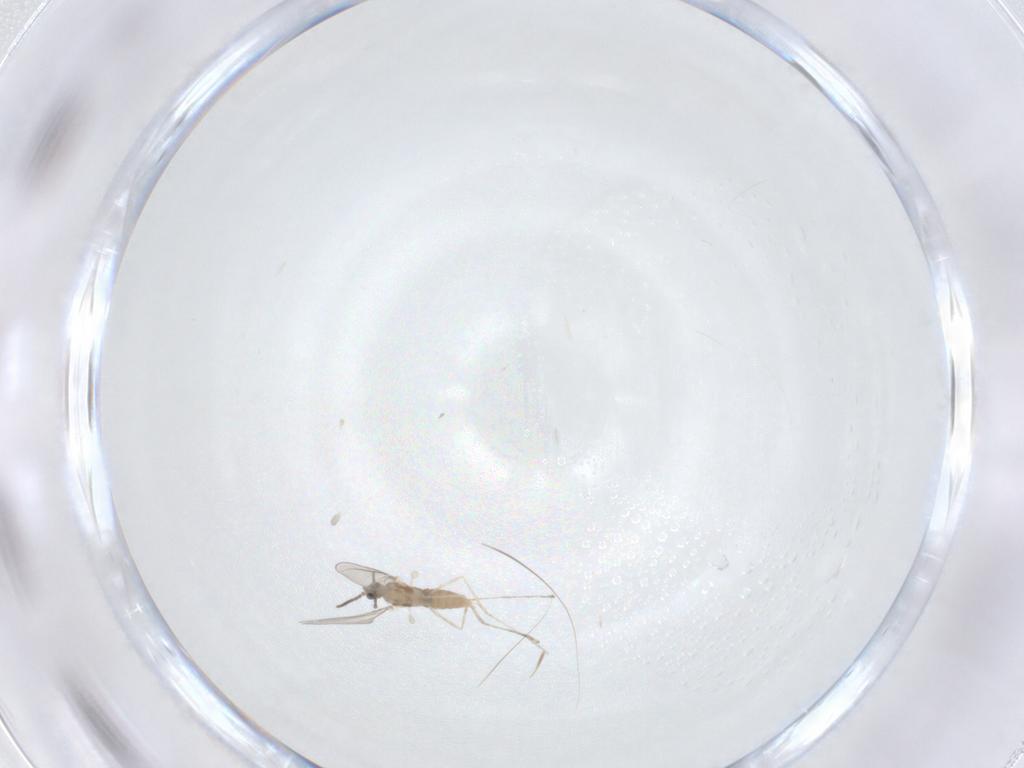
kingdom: Animalia
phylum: Arthropoda
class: Insecta
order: Diptera
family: Cecidomyiidae
